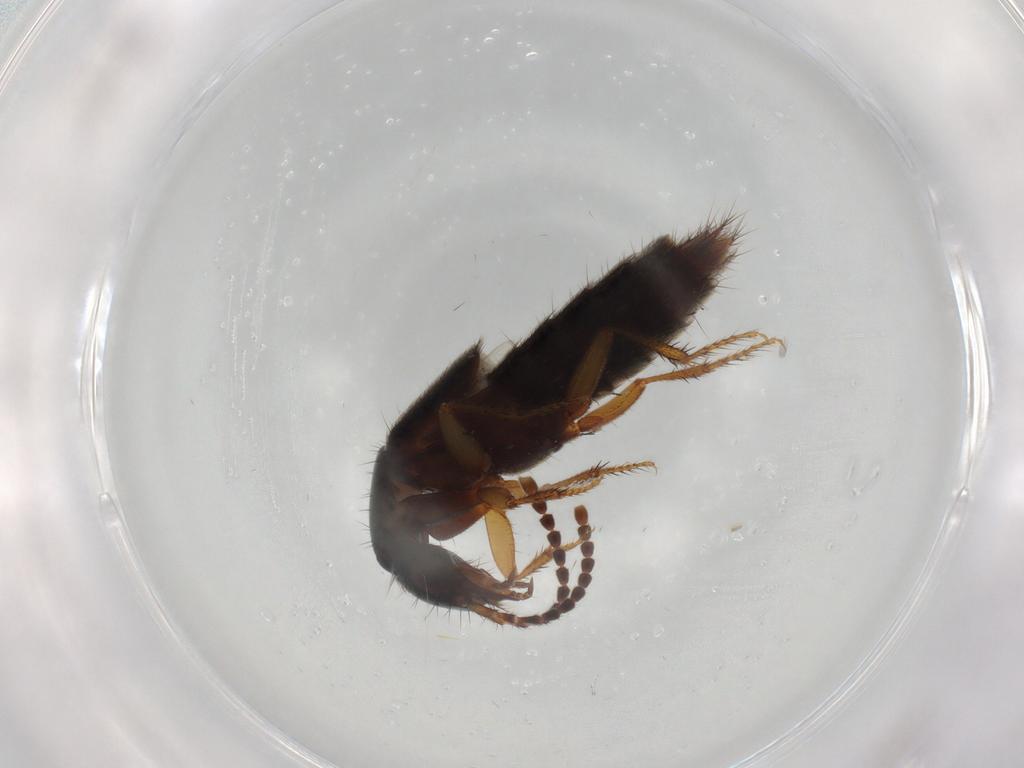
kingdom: Animalia
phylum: Arthropoda
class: Insecta
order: Coleoptera
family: Staphylinidae
